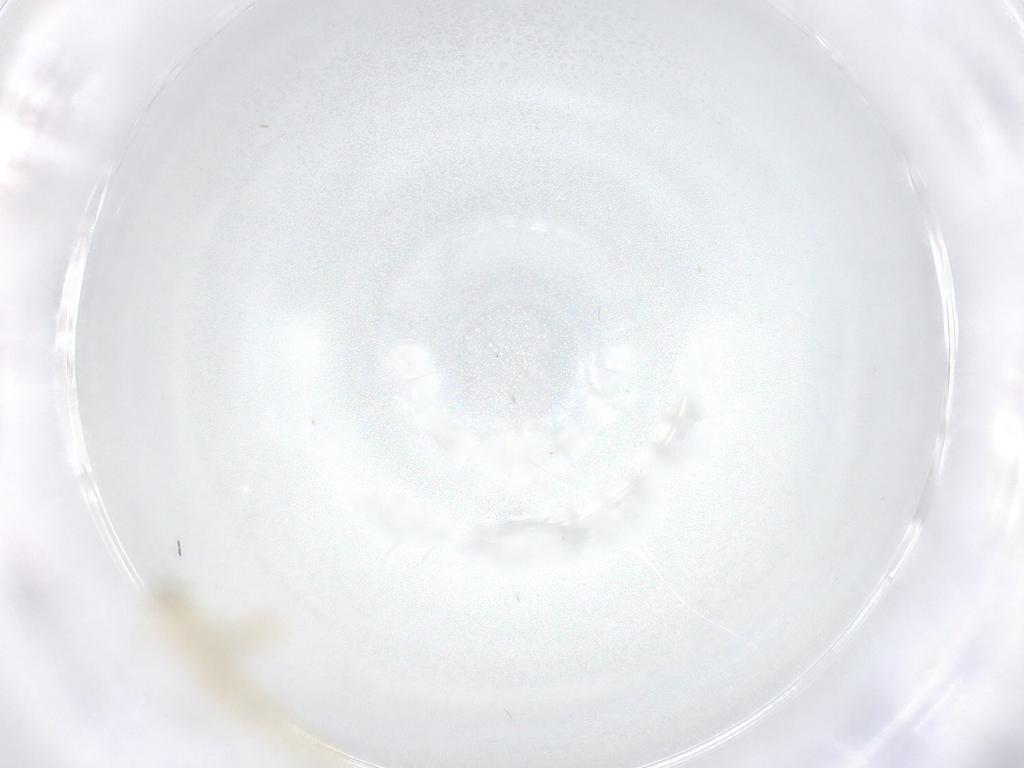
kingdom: Animalia
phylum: Arthropoda
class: Insecta
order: Diptera
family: Chironomidae
